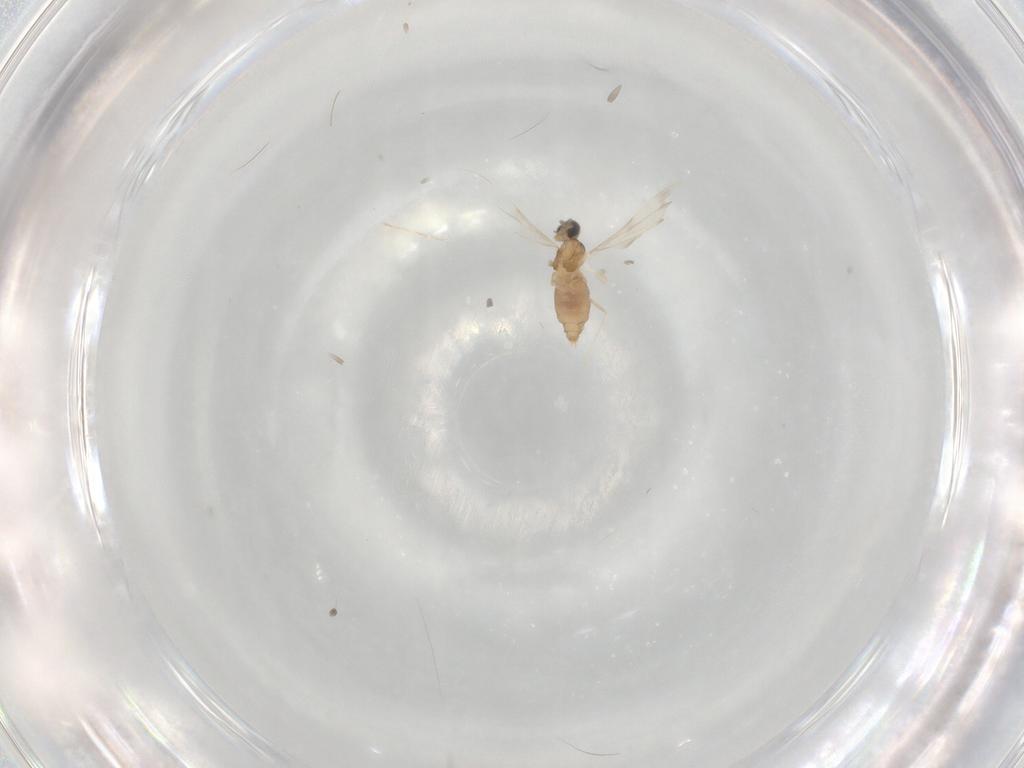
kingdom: Animalia
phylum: Arthropoda
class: Insecta
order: Diptera
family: Cecidomyiidae
